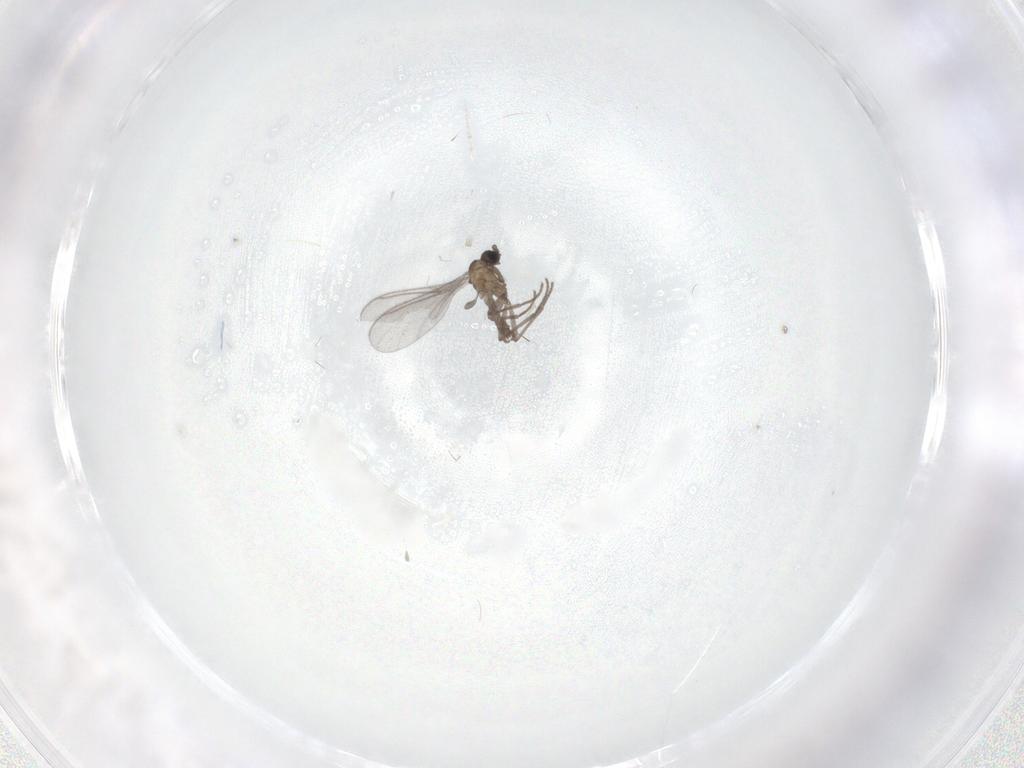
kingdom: Animalia
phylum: Arthropoda
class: Insecta
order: Diptera
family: Sciaridae
